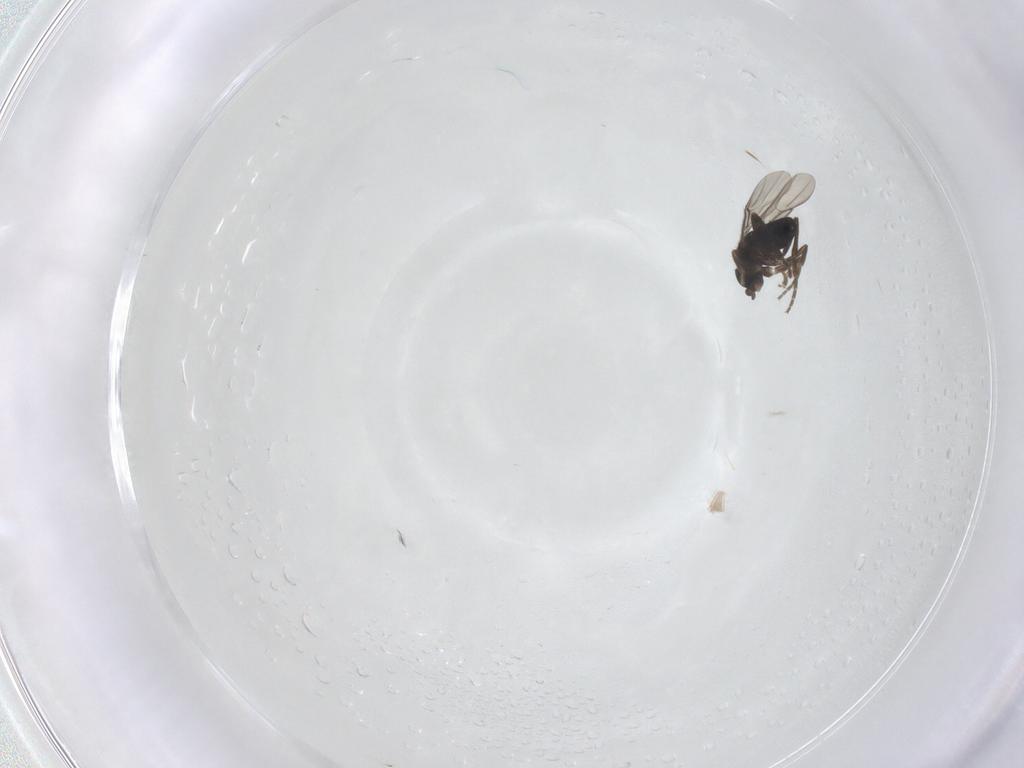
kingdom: Animalia
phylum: Arthropoda
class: Insecta
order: Diptera
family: Phoridae
